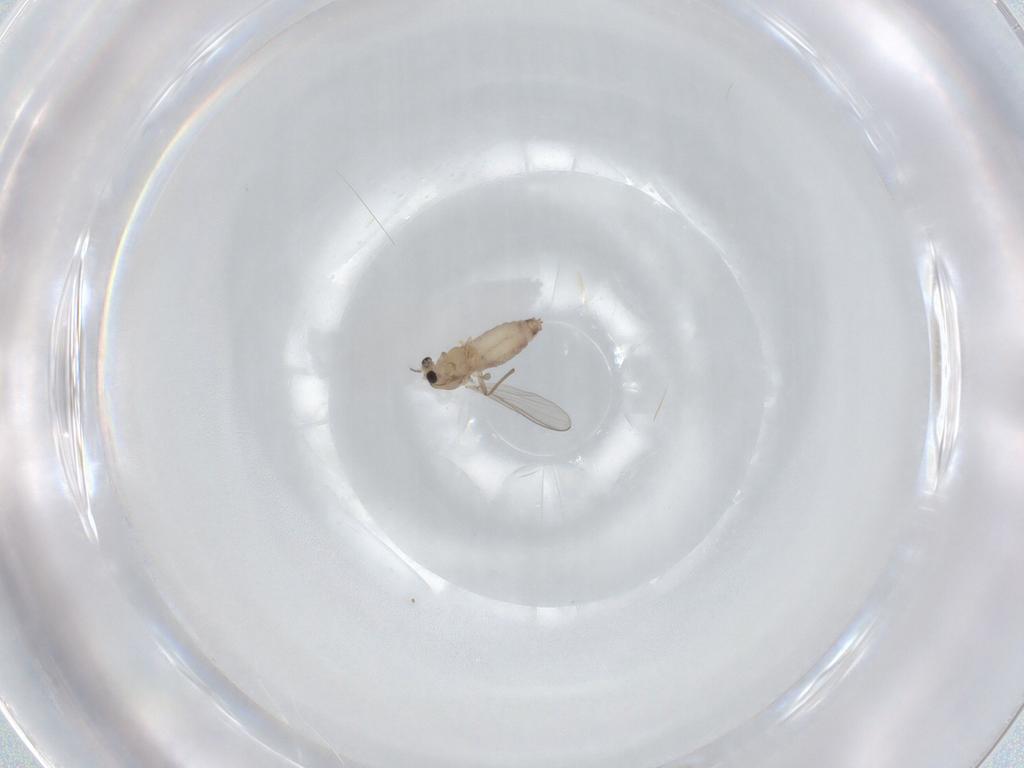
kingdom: Animalia
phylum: Arthropoda
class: Insecta
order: Diptera
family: Chironomidae
